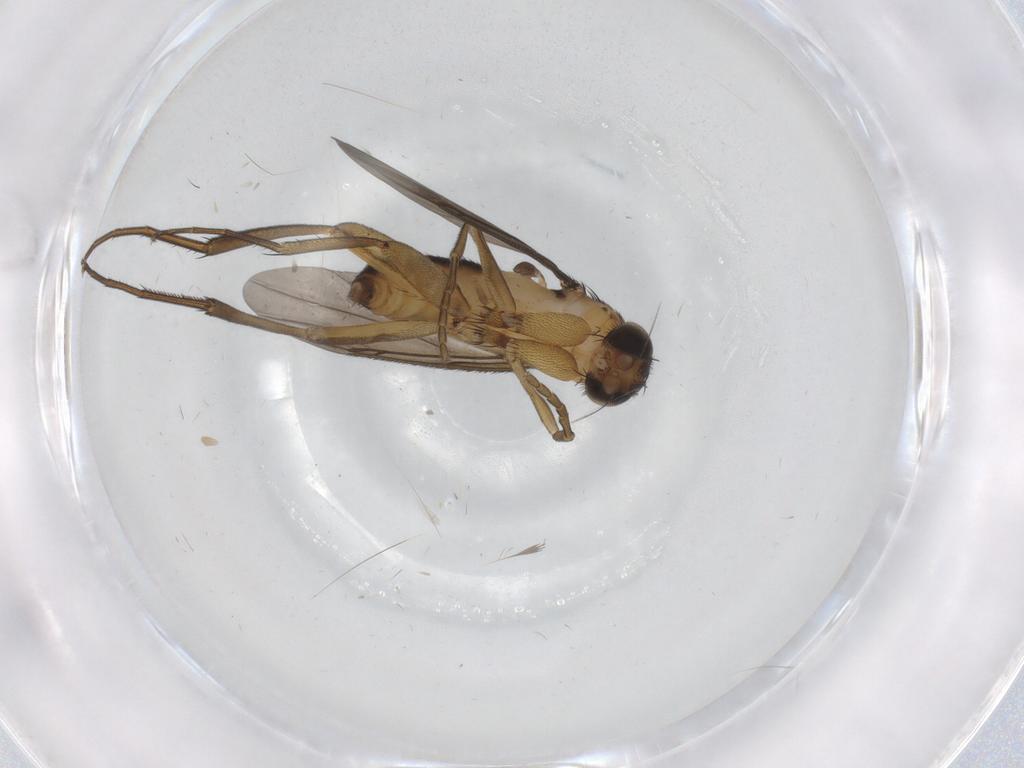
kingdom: Animalia
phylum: Arthropoda
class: Insecta
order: Diptera
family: Phoridae
